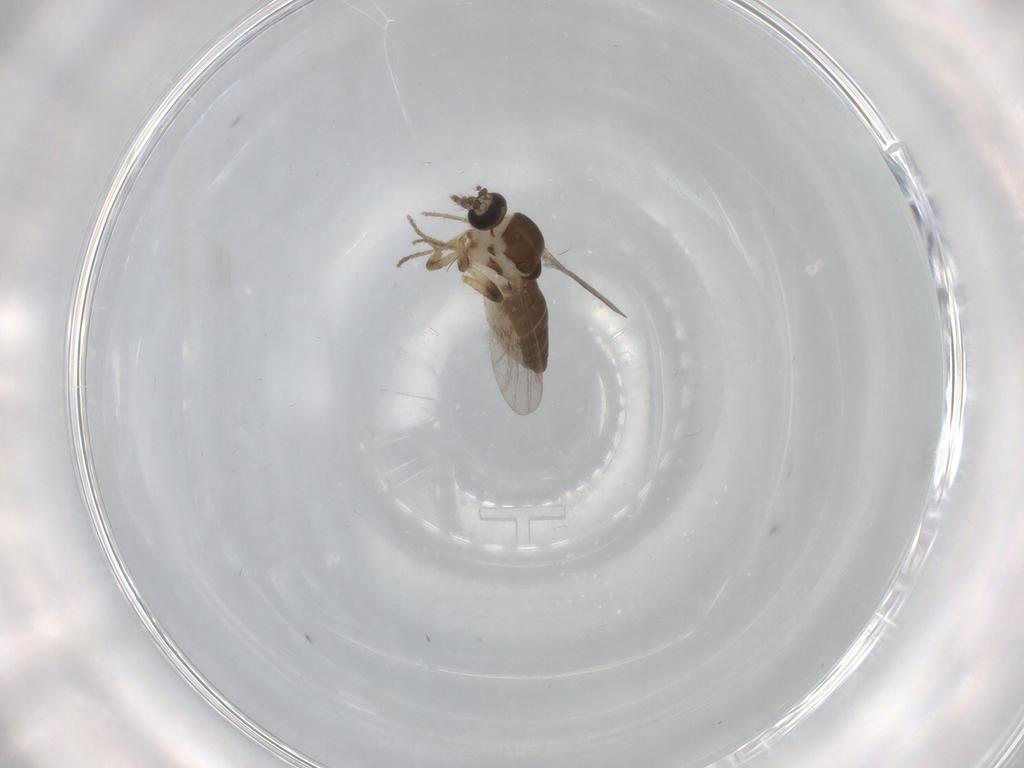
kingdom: Animalia
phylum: Arthropoda
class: Insecta
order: Diptera
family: Ceratopogonidae
